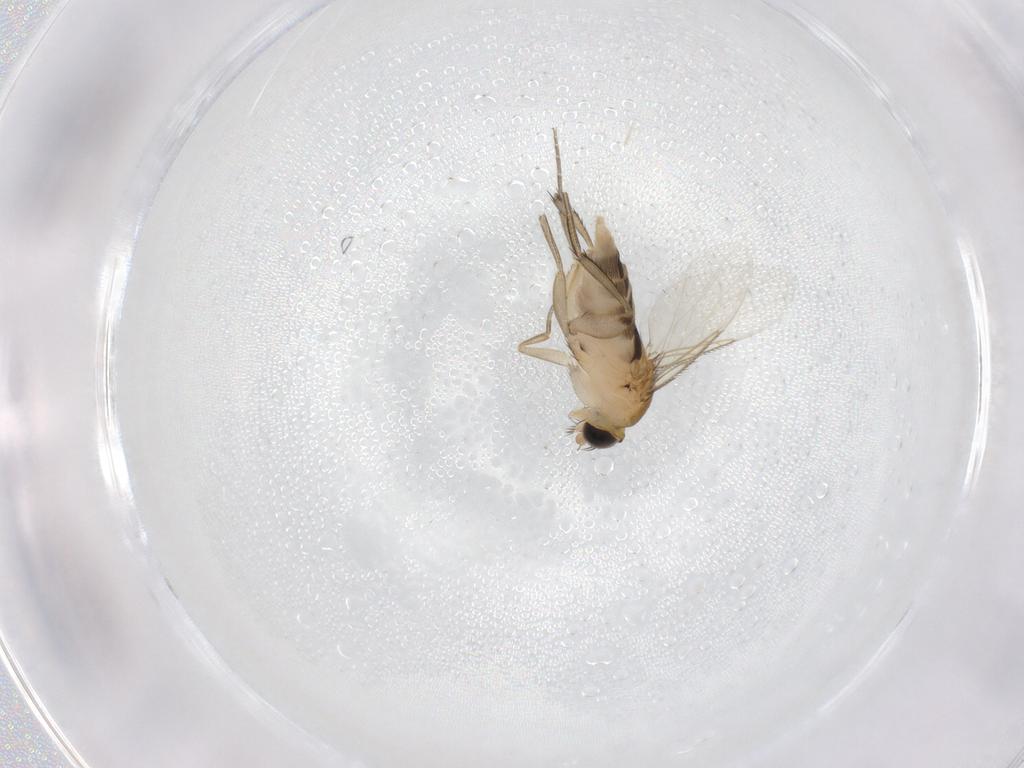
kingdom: Animalia
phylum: Arthropoda
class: Insecta
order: Diptera
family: Phoridae
